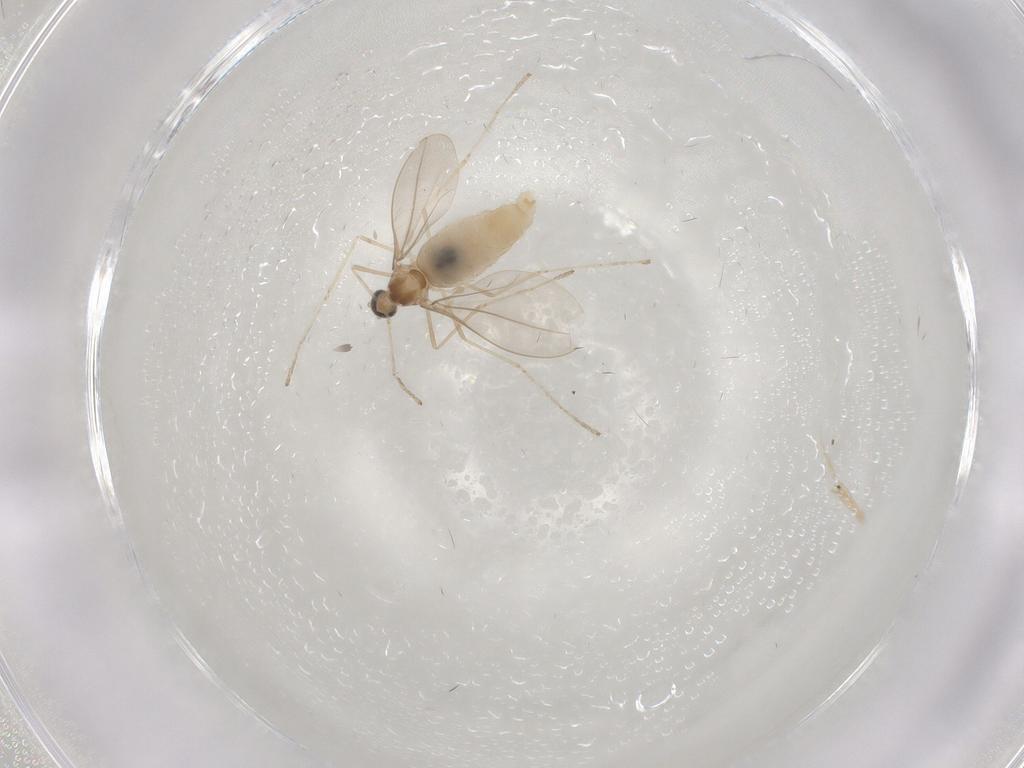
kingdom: Animalia
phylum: Arthropoda
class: Insecta
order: Diptera
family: Cecidomyiidae
